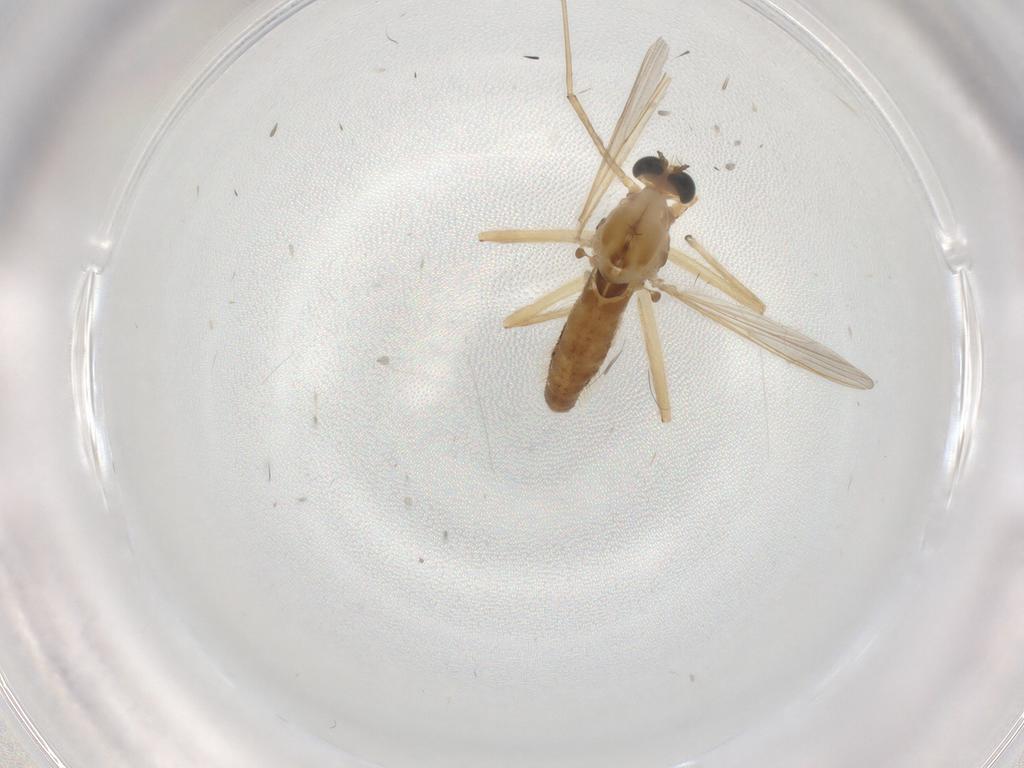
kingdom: Animalia
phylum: Arthropoda
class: Insecta
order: Diptera
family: Chironomidae
